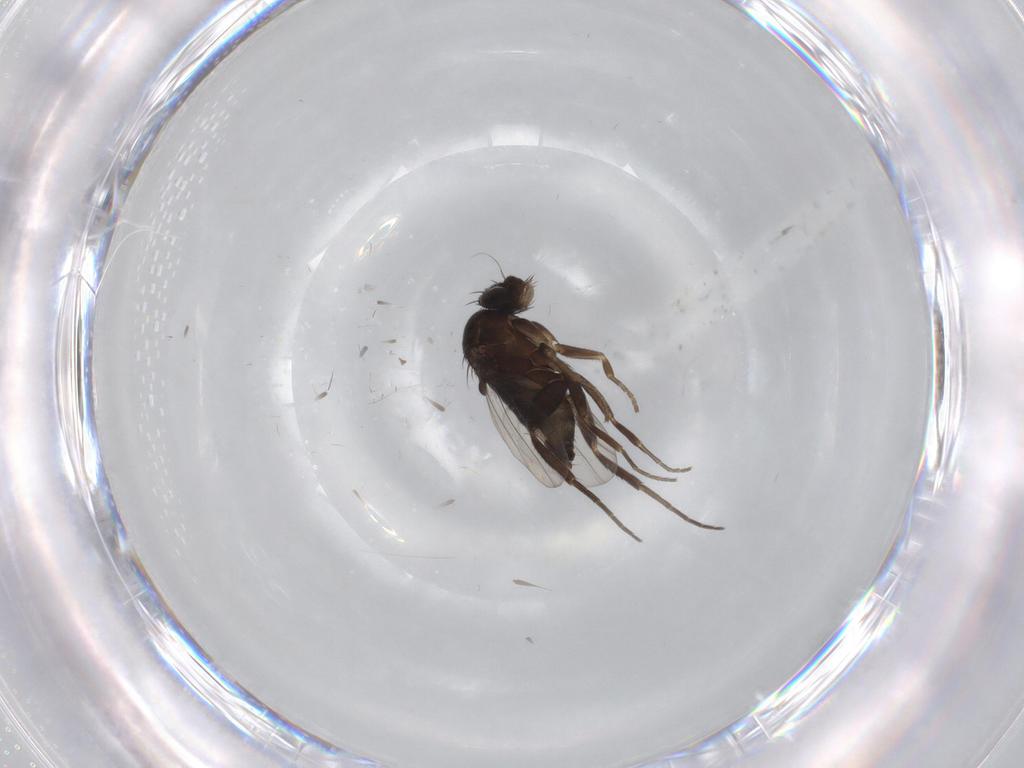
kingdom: Animalia
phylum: Arthropoda
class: Insecta
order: Diptera
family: Phoridae
